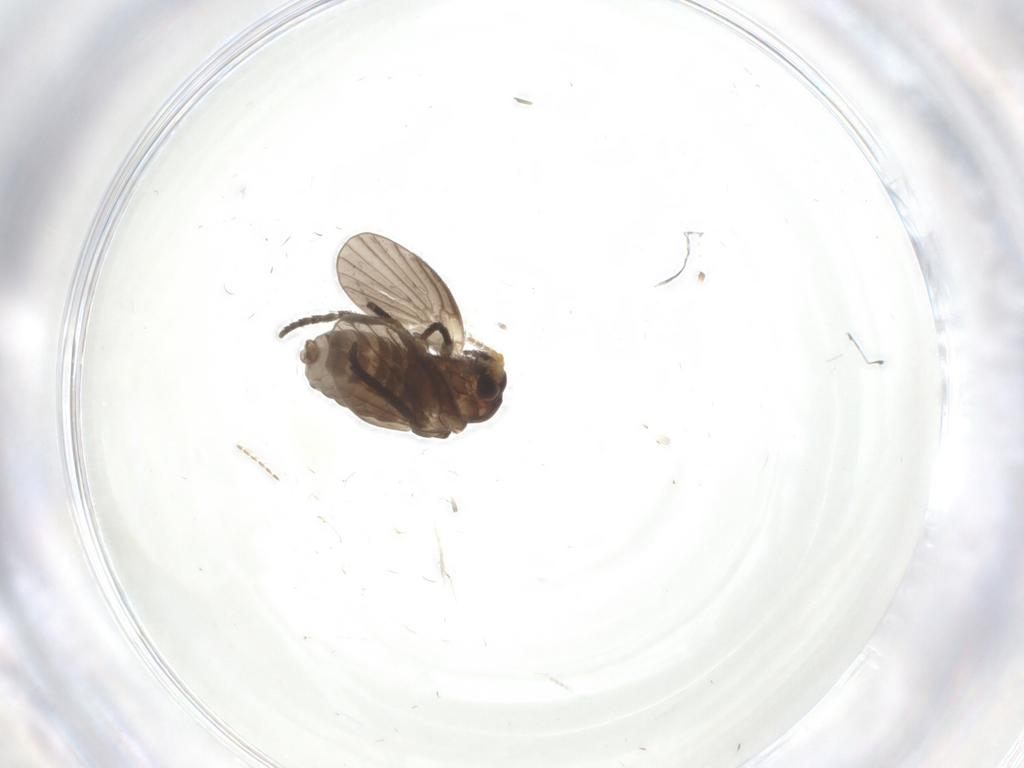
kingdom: Animalia
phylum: Arthropoda
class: Insecta
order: Diptera
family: Psychodidae
